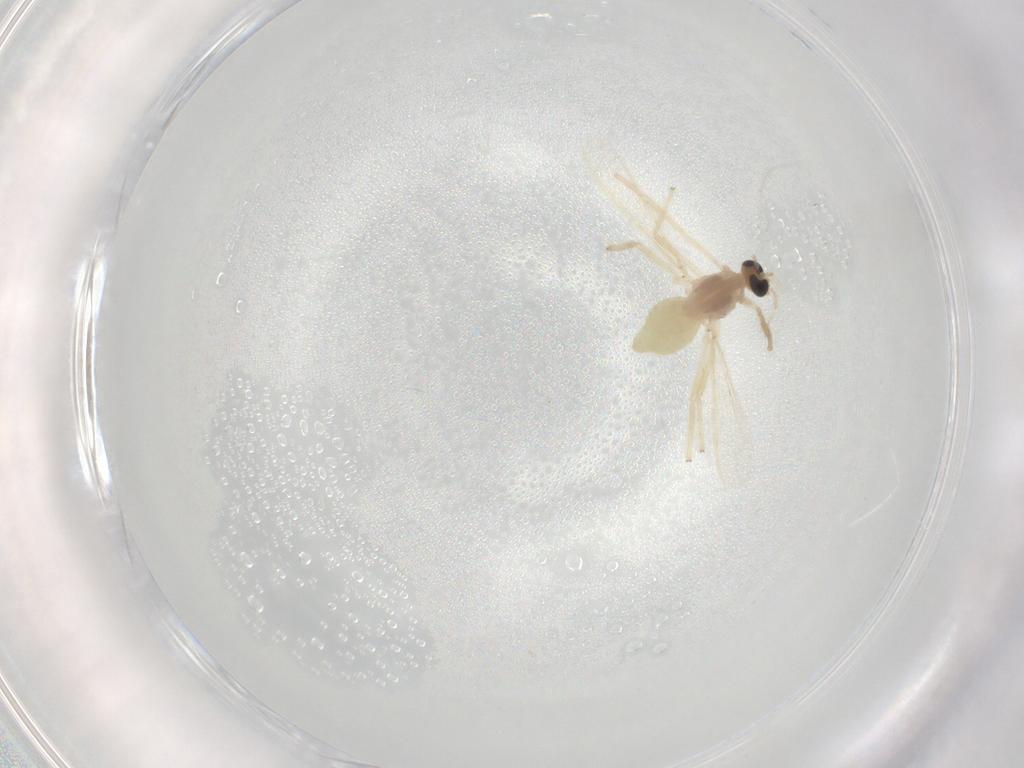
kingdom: Animalia
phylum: Arthropoda
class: Insecta
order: Diptera
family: Chironomidae
